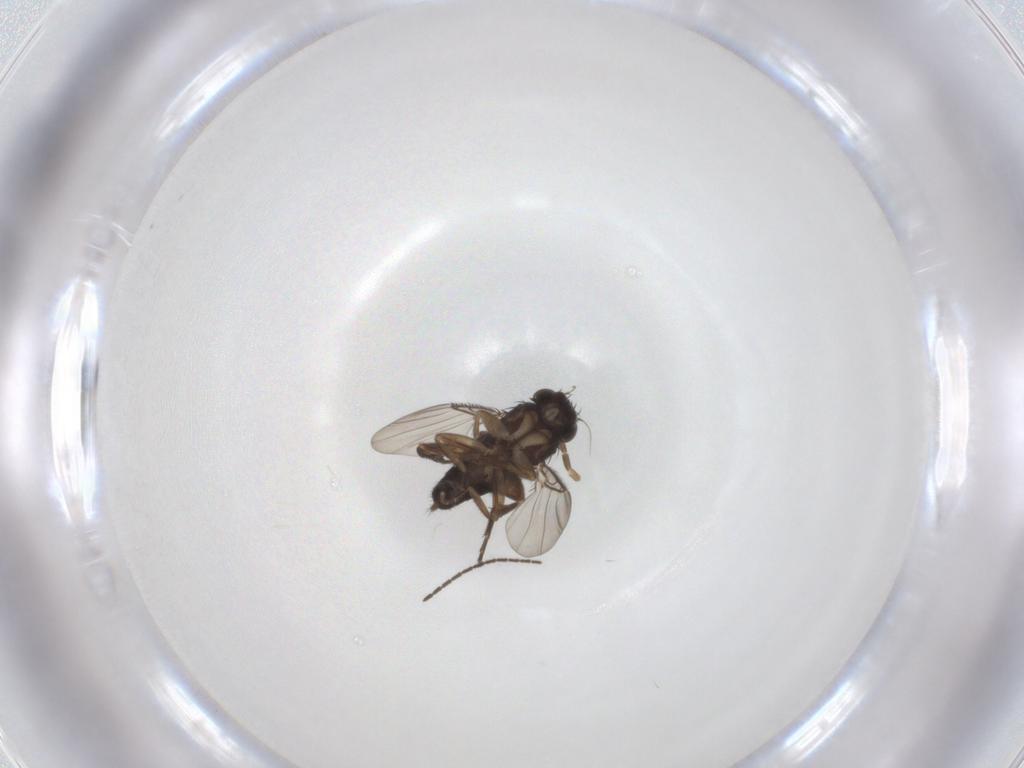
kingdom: Animalia
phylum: Arthropoda
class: Insecta
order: Diptera
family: Phoridae
